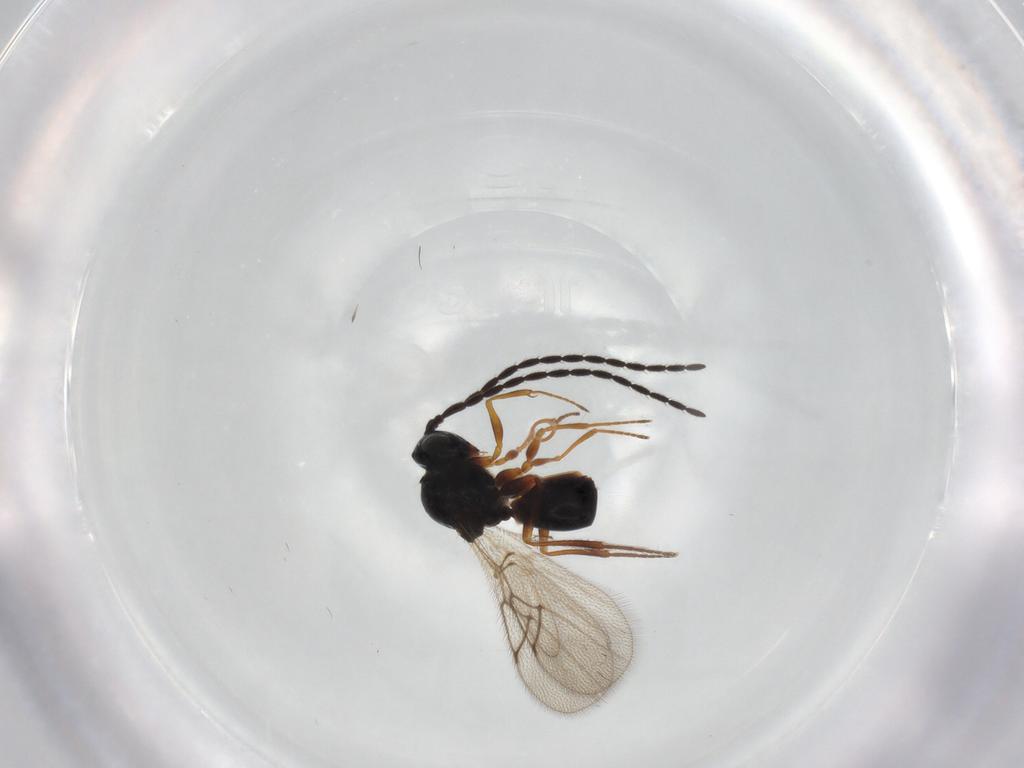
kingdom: Animalia
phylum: Arthropoda
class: Insecta
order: Hymenoptera
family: Figitidae
